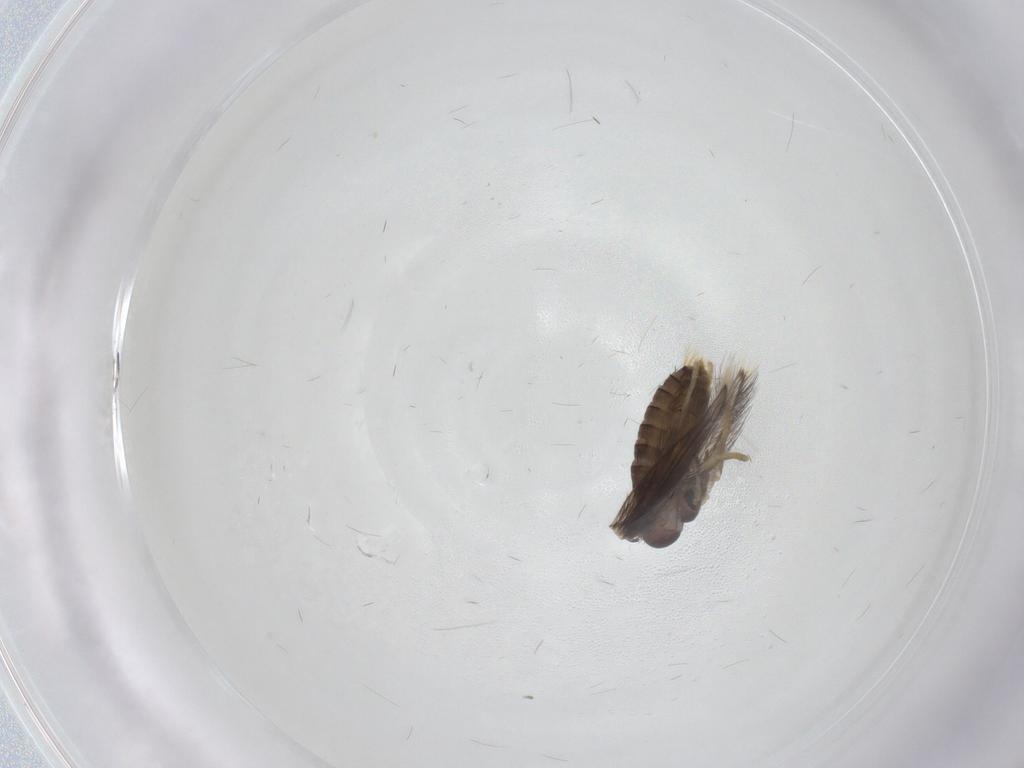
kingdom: Animalia
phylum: Arthropoda
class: Insecta
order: Diptera
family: Psychodidae
